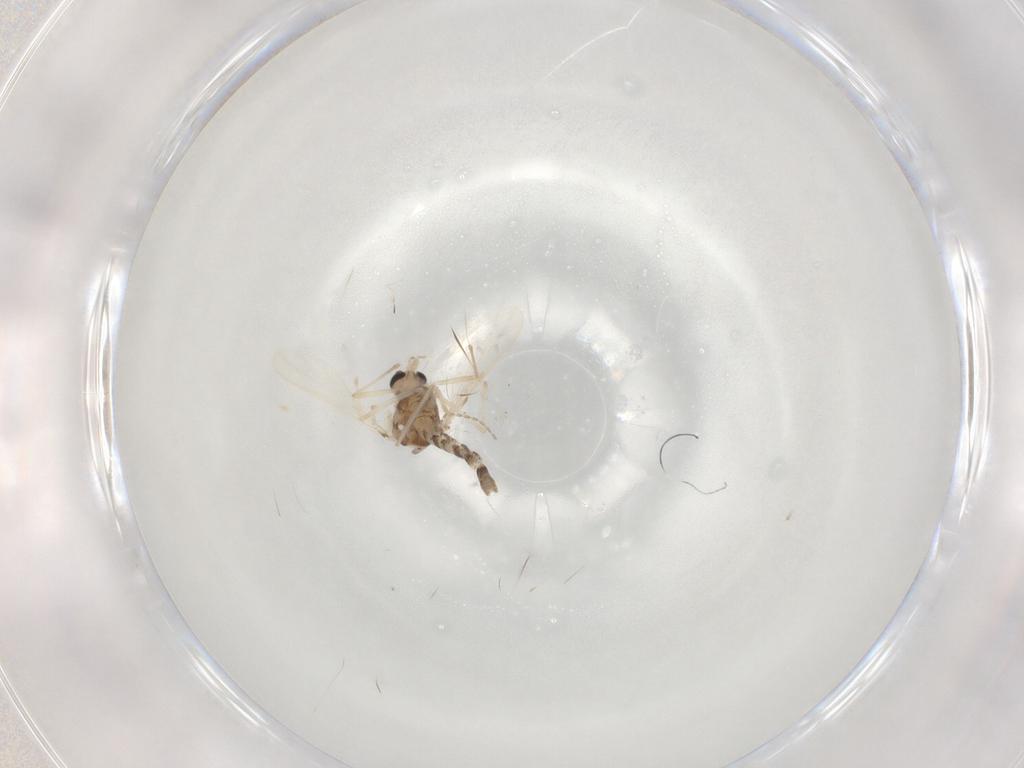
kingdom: Animalia
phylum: Arthropoda
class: Insecta
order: Diptera
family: Chironomidae
